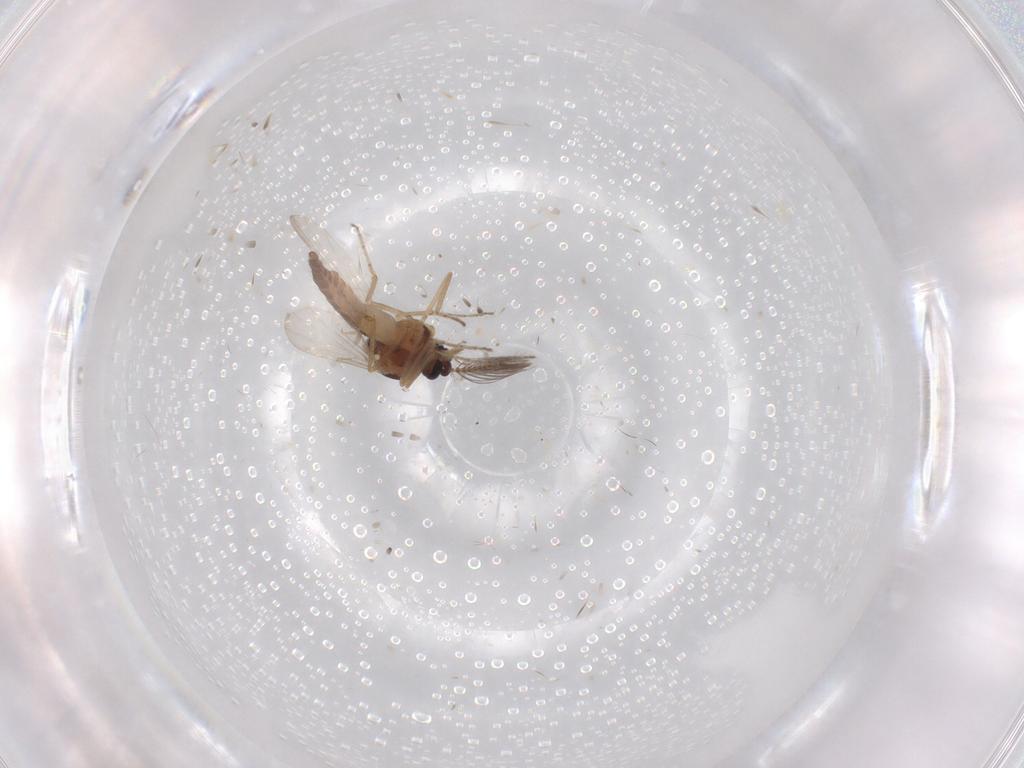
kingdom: Animalia
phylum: Arthropoda
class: Insecta
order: Diptera
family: Ceratopogonidae
